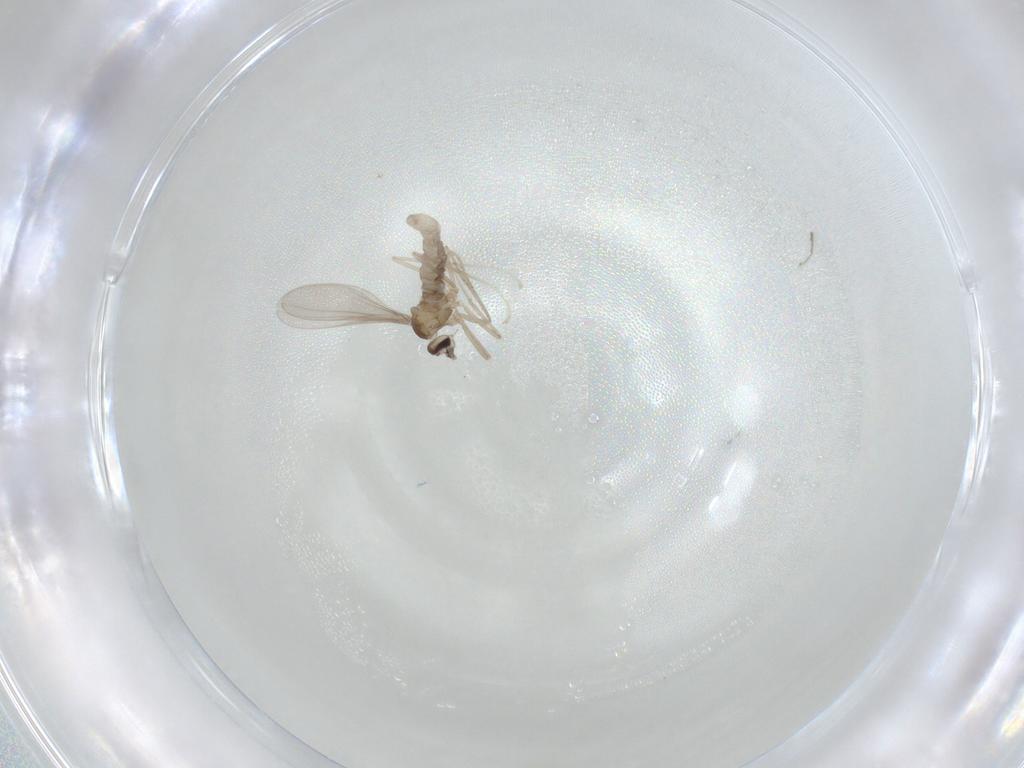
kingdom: Animalia
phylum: Arthropoda
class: Insecta
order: Diptera
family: Cecidomyiidae
